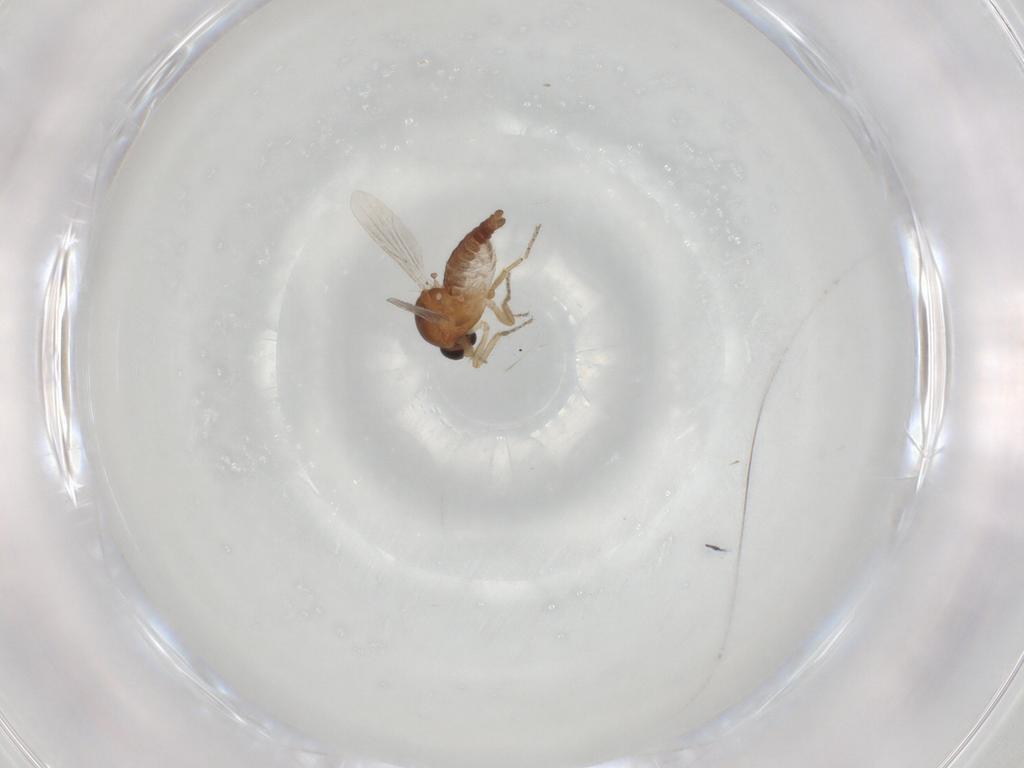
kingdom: Animalia
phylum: Arthropoda
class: Insecta
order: Diptera
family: Ceratopogonidae
